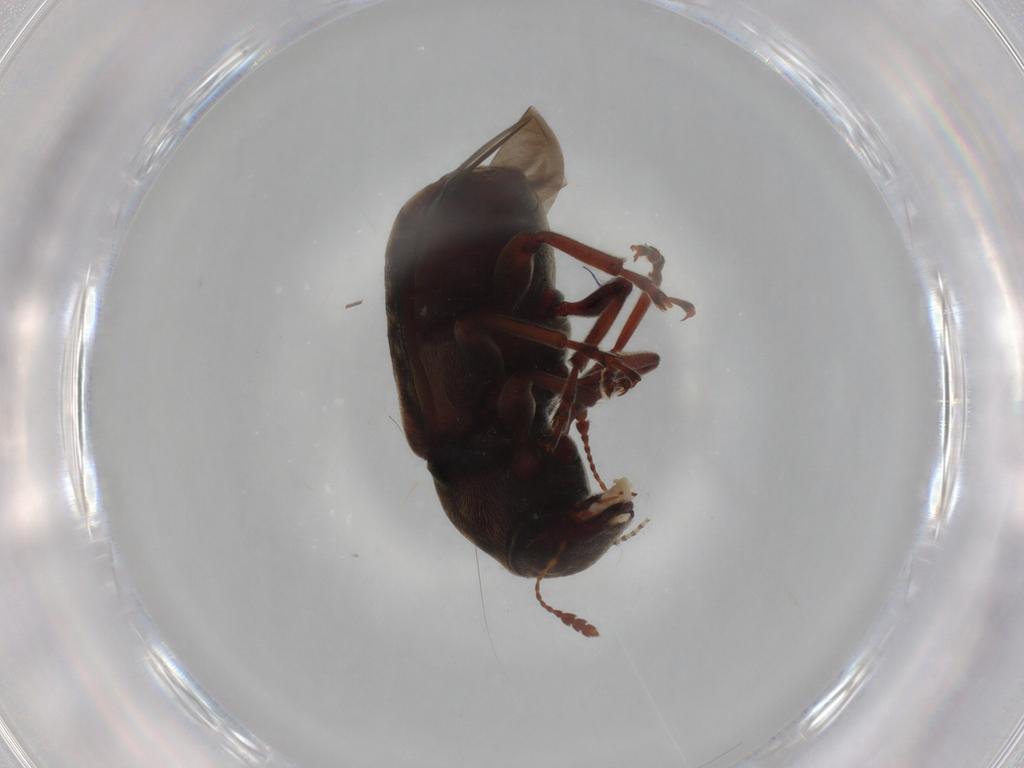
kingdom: Animalia
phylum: Arthropoda
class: Insecta
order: Coleoptera
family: Anthribidae
